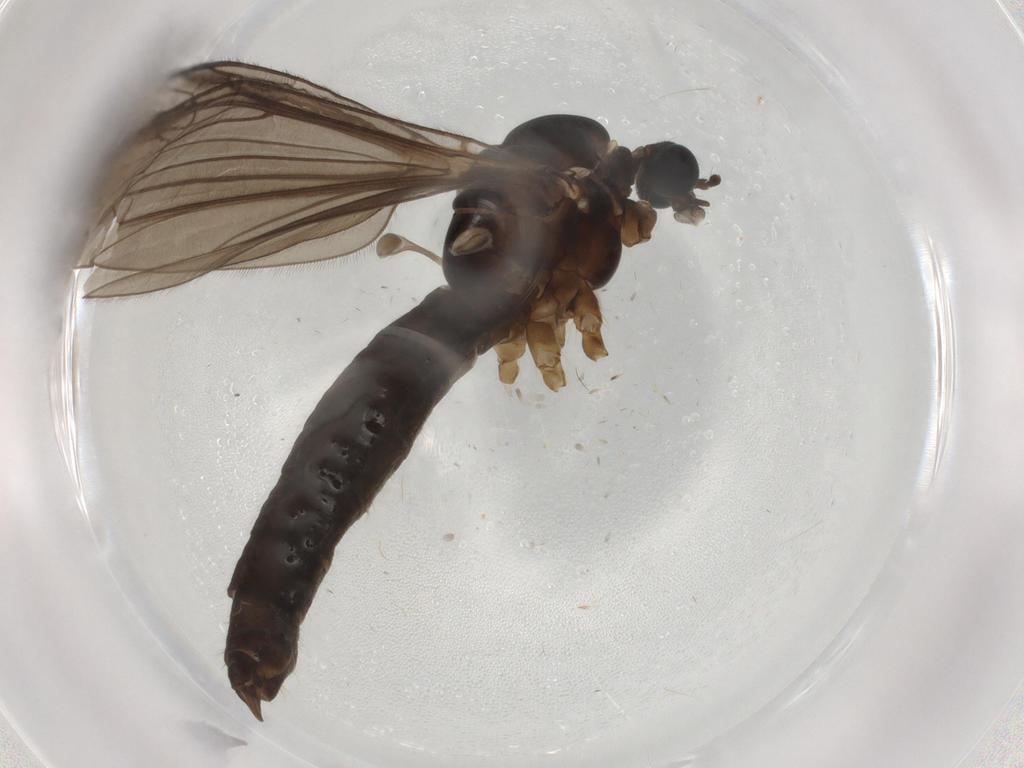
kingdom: Animalia
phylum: Arthropoda
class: Insecta
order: Diptera
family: Limoniidae
